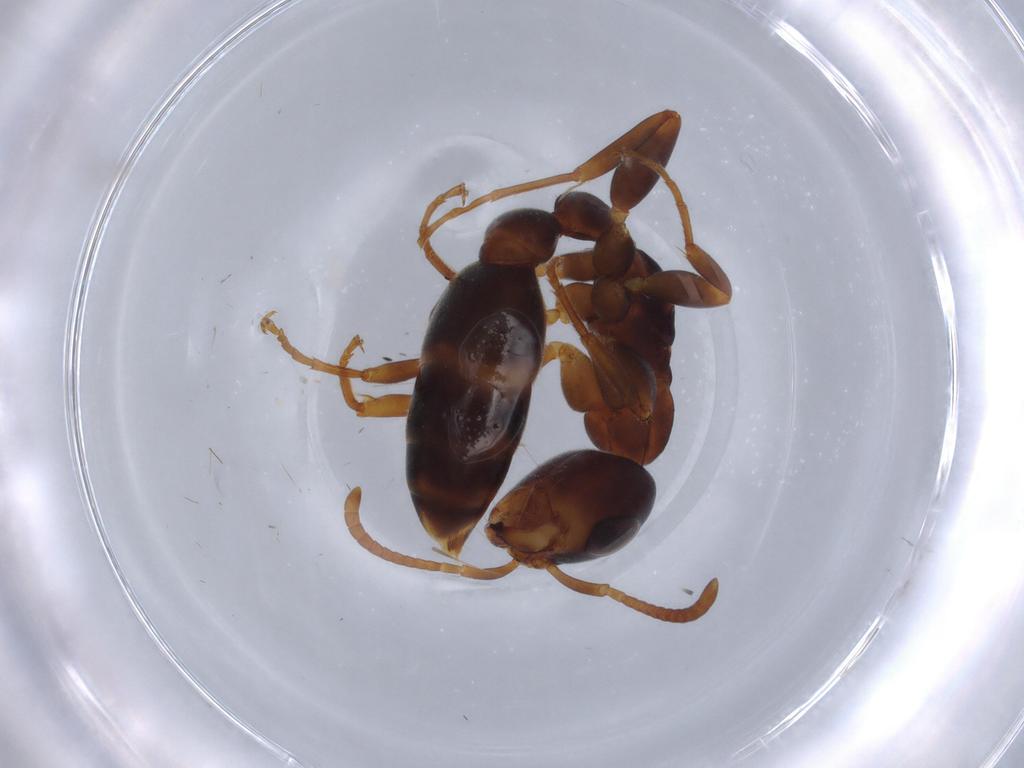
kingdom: Animalia
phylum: Arthropoda
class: Insecta
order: Hymenoptera
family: Formicidae
